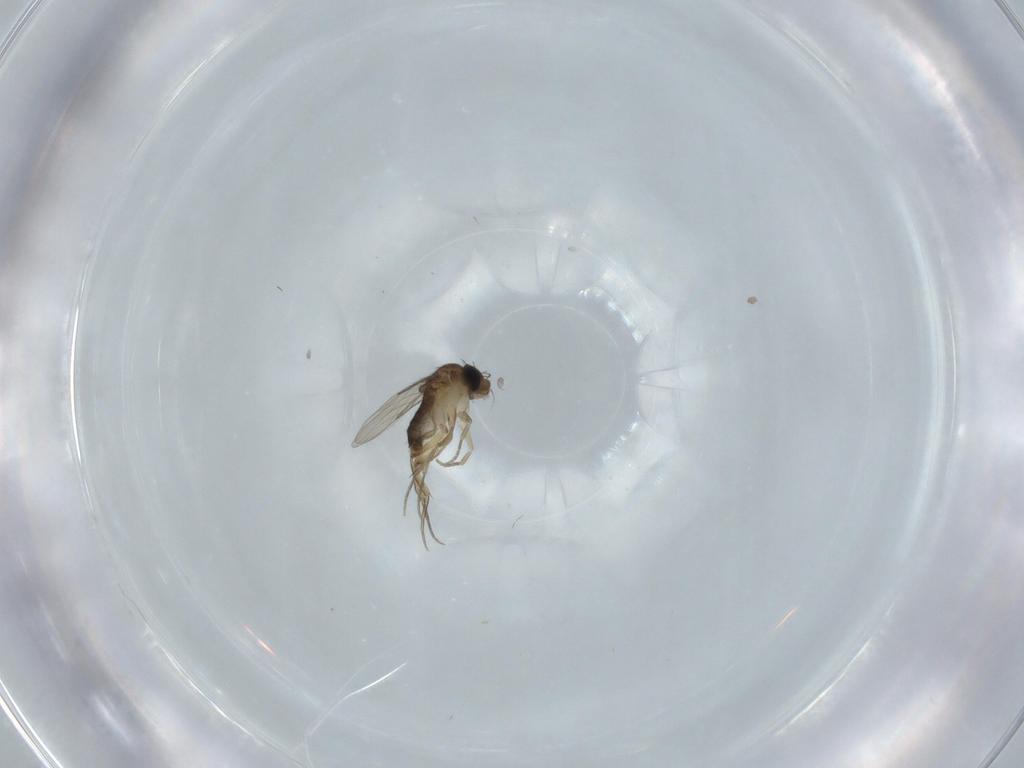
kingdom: Animalia
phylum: Arthropoda
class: Insecta
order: Diptera
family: Phoridae
